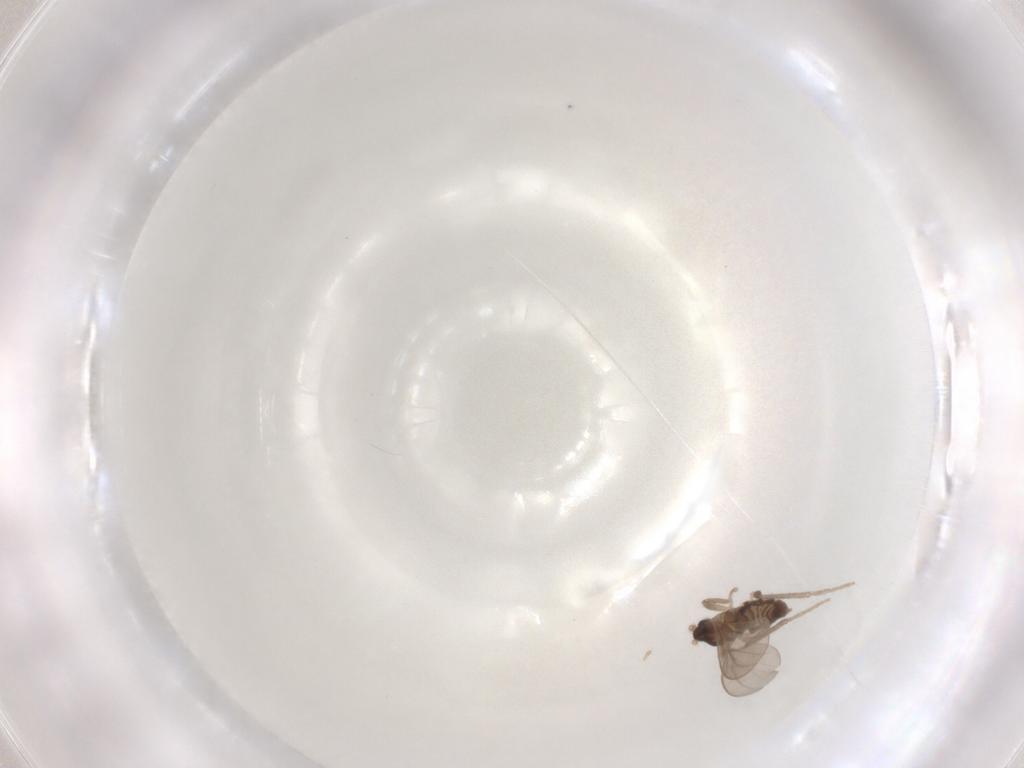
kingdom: Animalia
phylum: Arthropoda
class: Insecta
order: Diptera
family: Cecidomyiidae
